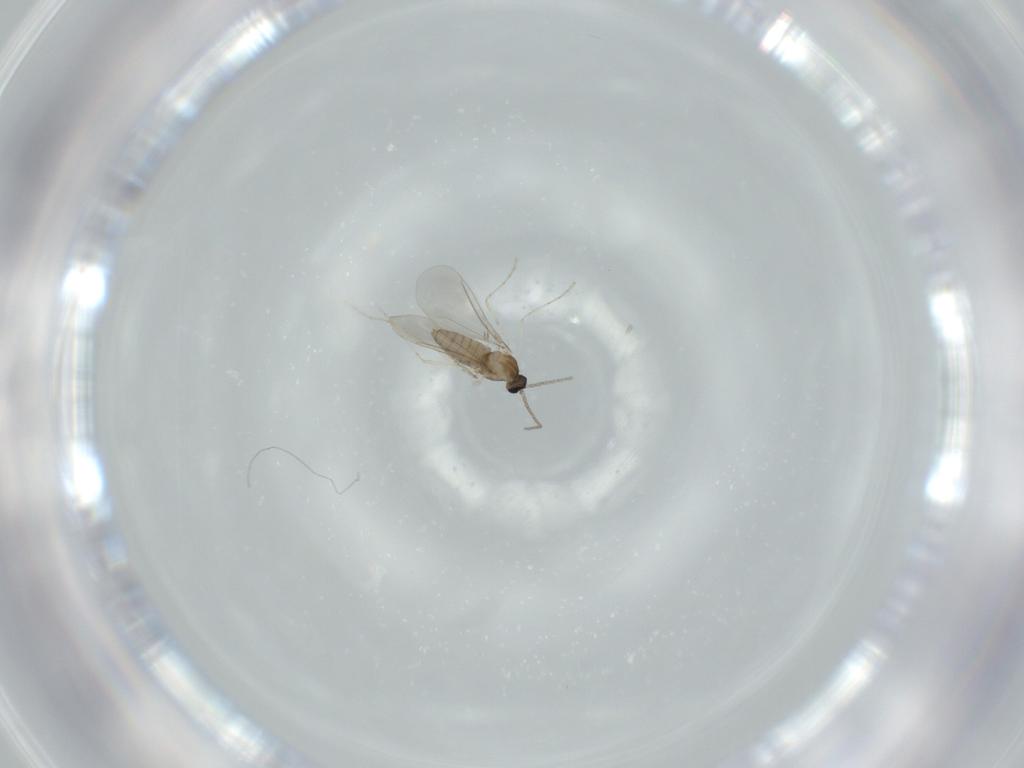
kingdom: Animalia
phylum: Arthropoda
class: Insecta
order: Diptera
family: Cecidomyiidae
